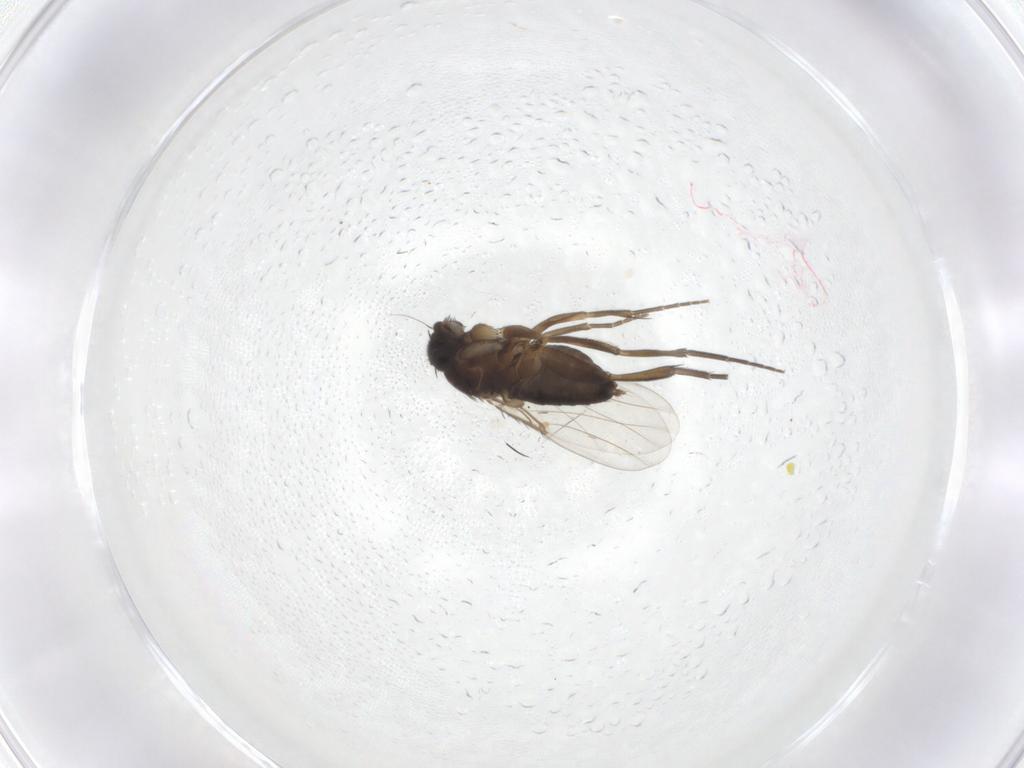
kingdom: Animalia
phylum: Arthropoda
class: Insecta
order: Diptera
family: Phoridae
